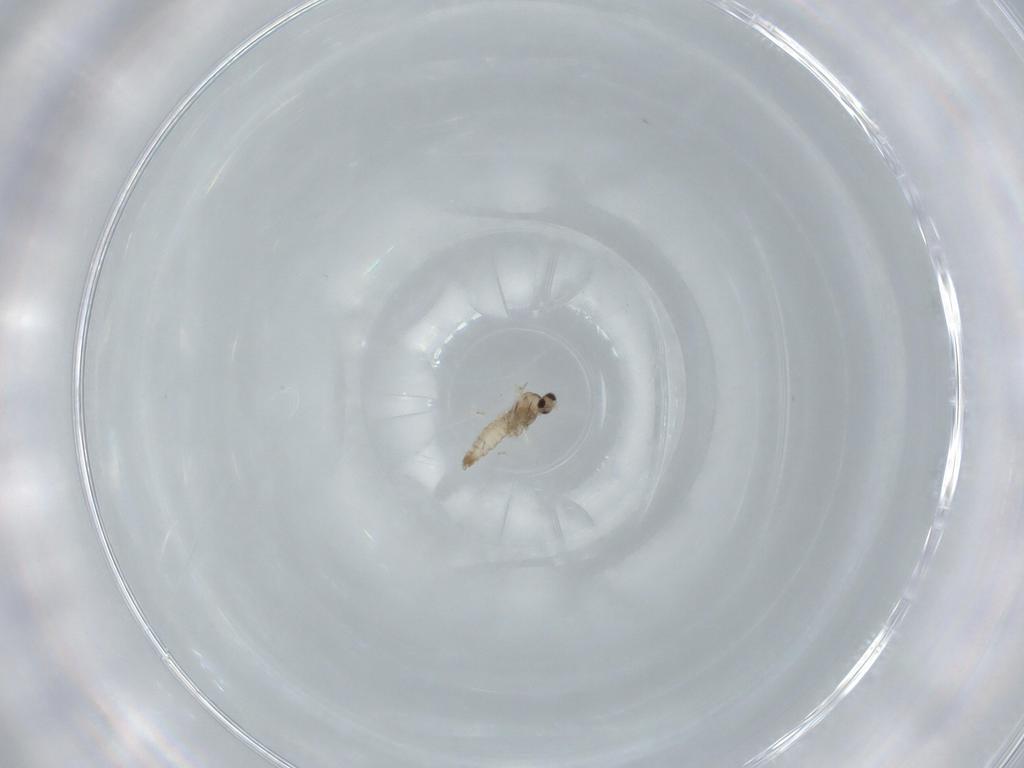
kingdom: Animalia
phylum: Arthropoda
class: Insecta
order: Diptera
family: Cecidomyiidae
